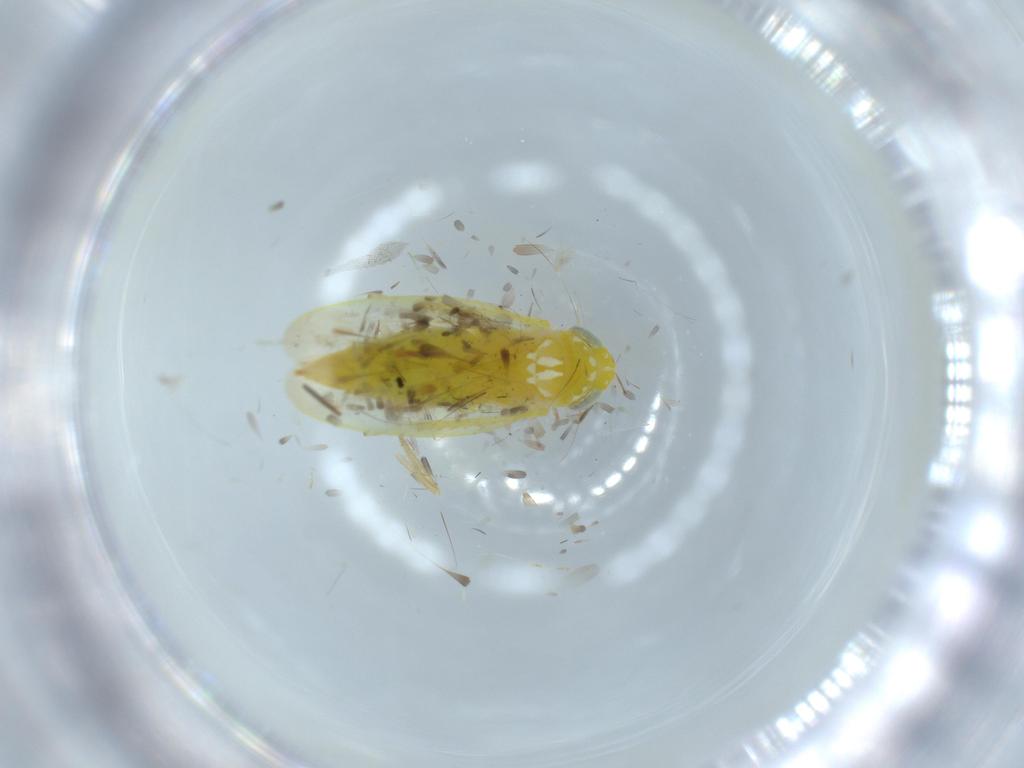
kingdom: Animalia
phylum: Arthropoda
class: Insecta
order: Hemiptera
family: Cicadellidae
